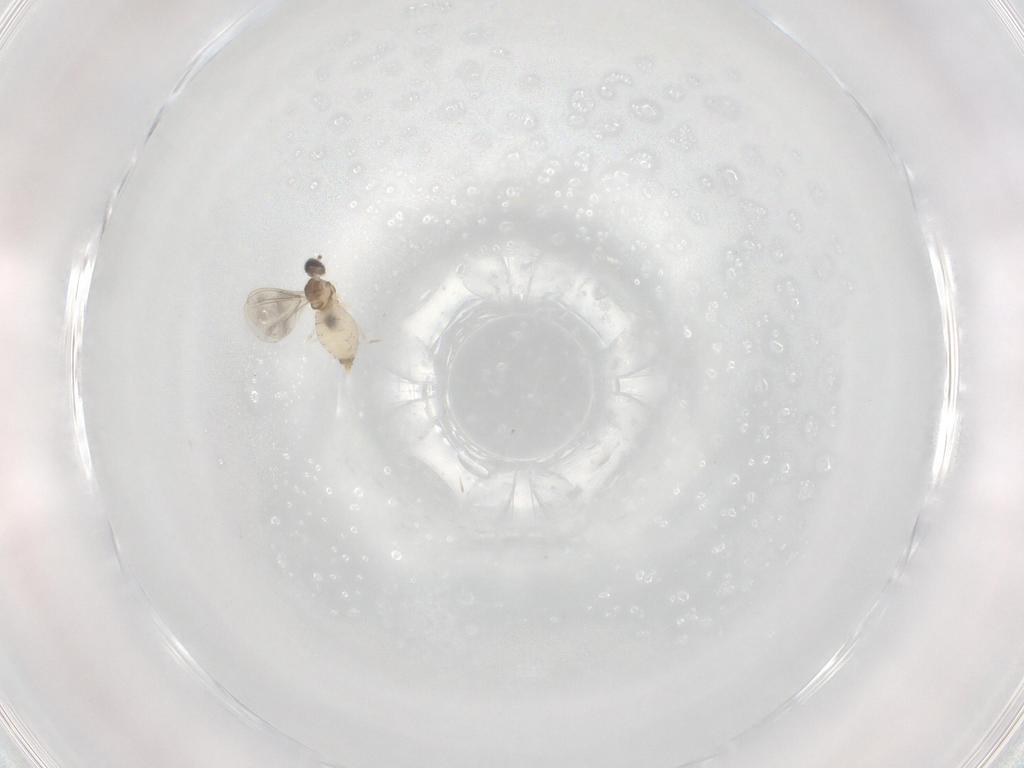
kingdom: Animalia
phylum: Arthropoda
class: Insecta
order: Diptera
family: Cecidomyiidae
